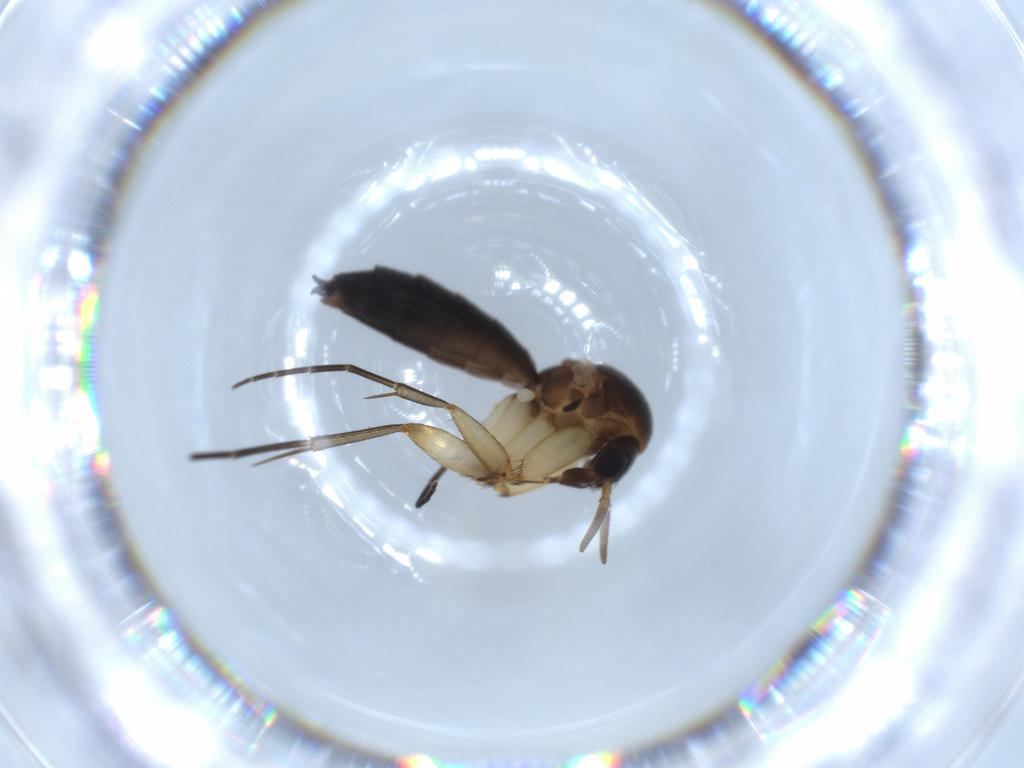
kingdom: Animalia
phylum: Arthropoda
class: Insecta
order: Diptera
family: Mycetophilidae
